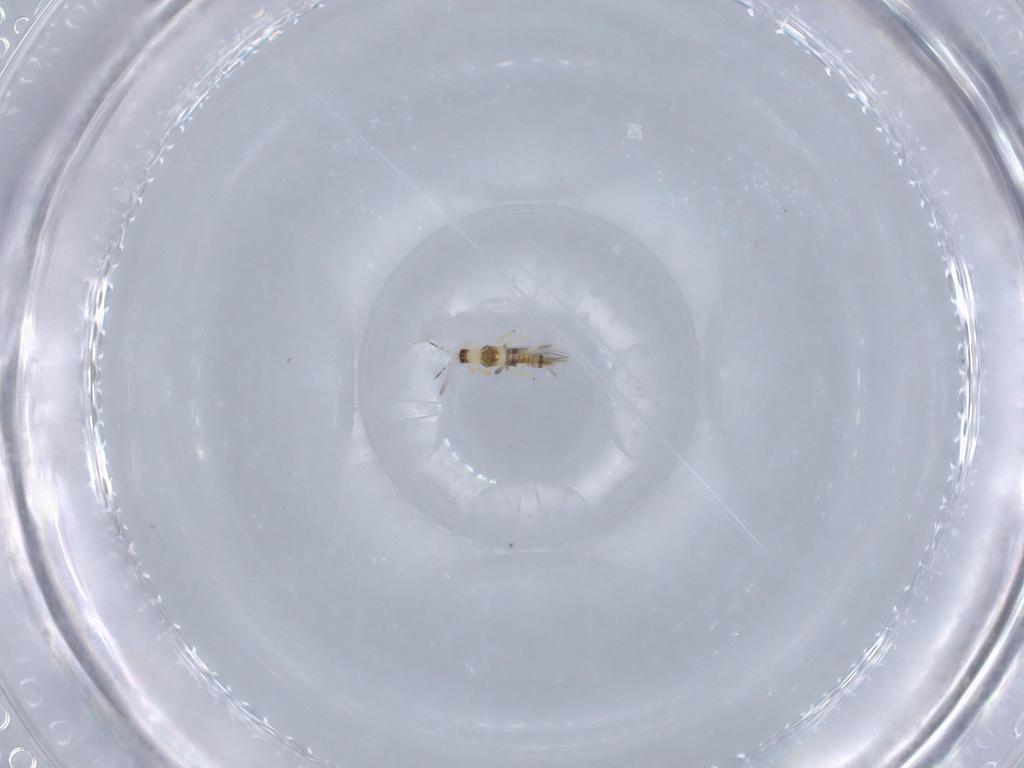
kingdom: Animalia
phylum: Arthropoda
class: Insecta
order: Thysanoptera
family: Thripidae
